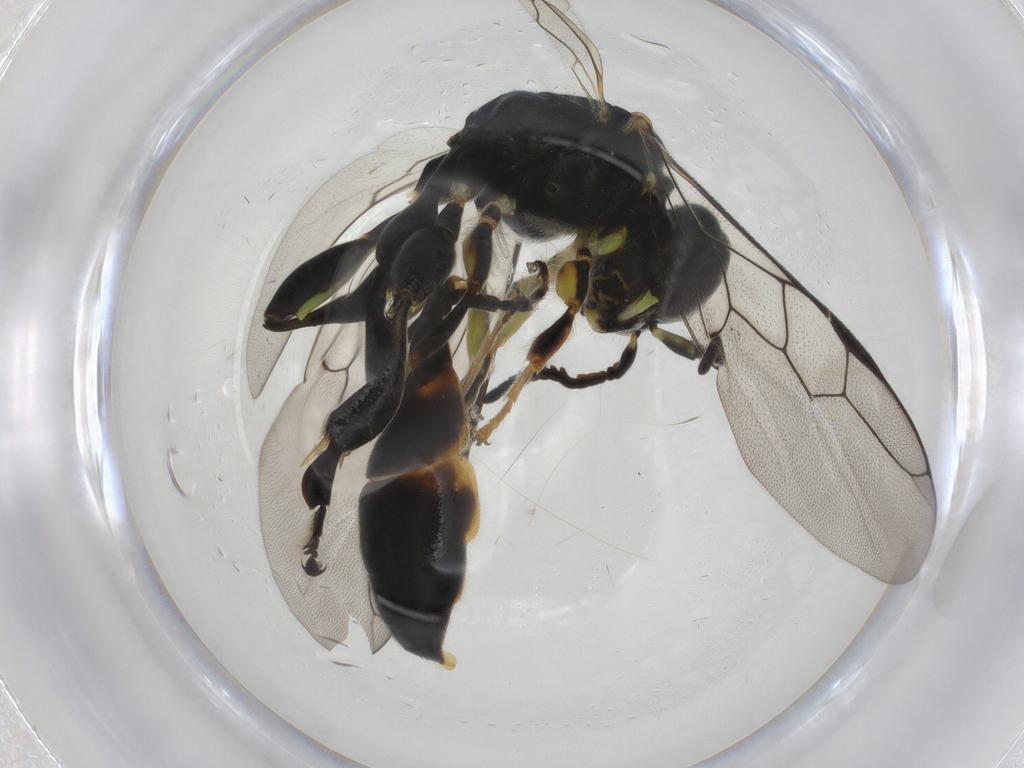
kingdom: Animalia
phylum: Arthropoda
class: Insecta
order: Hymenoptera
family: Crabronidae
